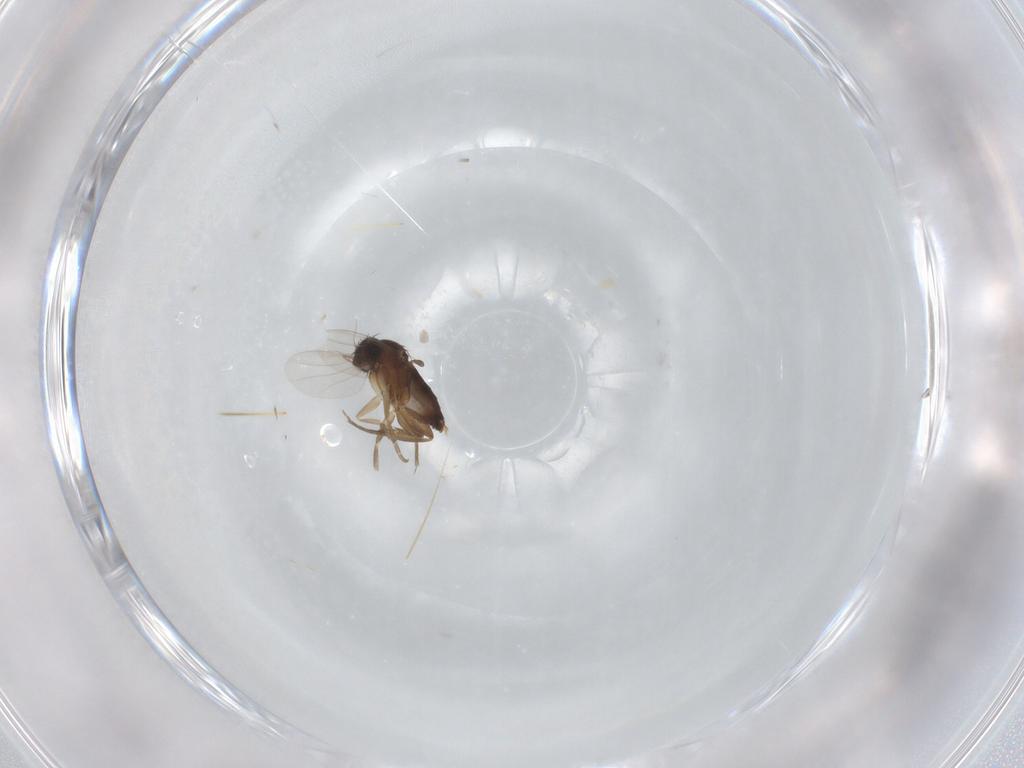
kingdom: Animalia
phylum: Arthropoda
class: Insecta
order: Diptera
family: Phoridae
